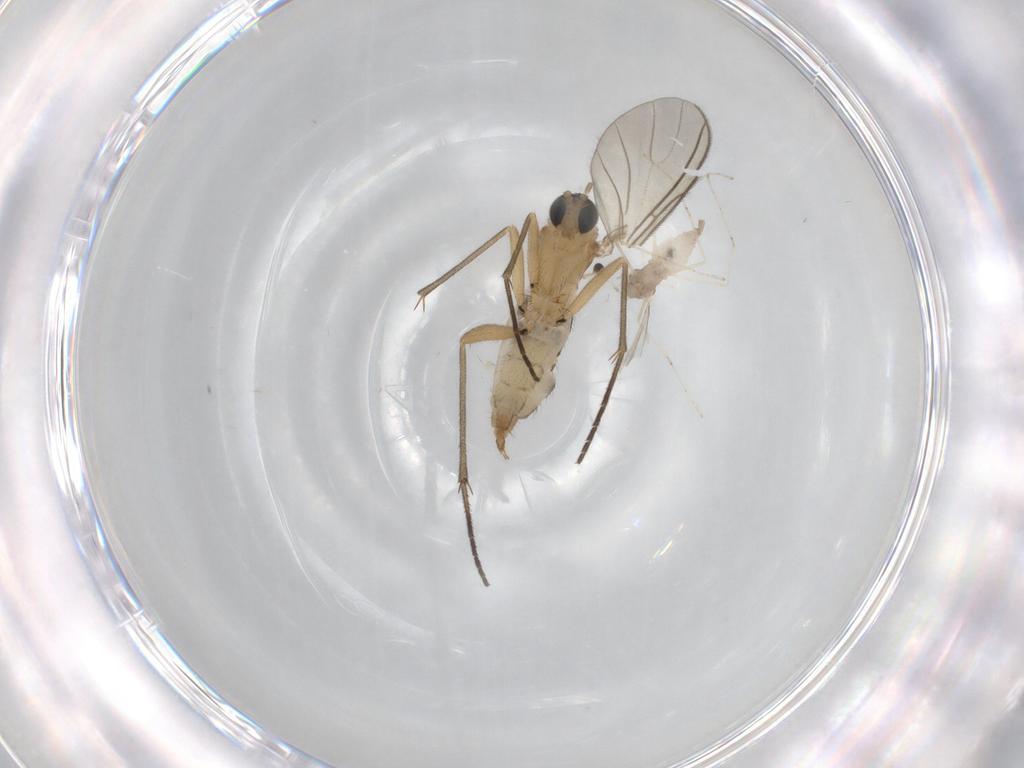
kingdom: Animalia
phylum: Arthropoda
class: Insecta
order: Diptera
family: Sciaridae
